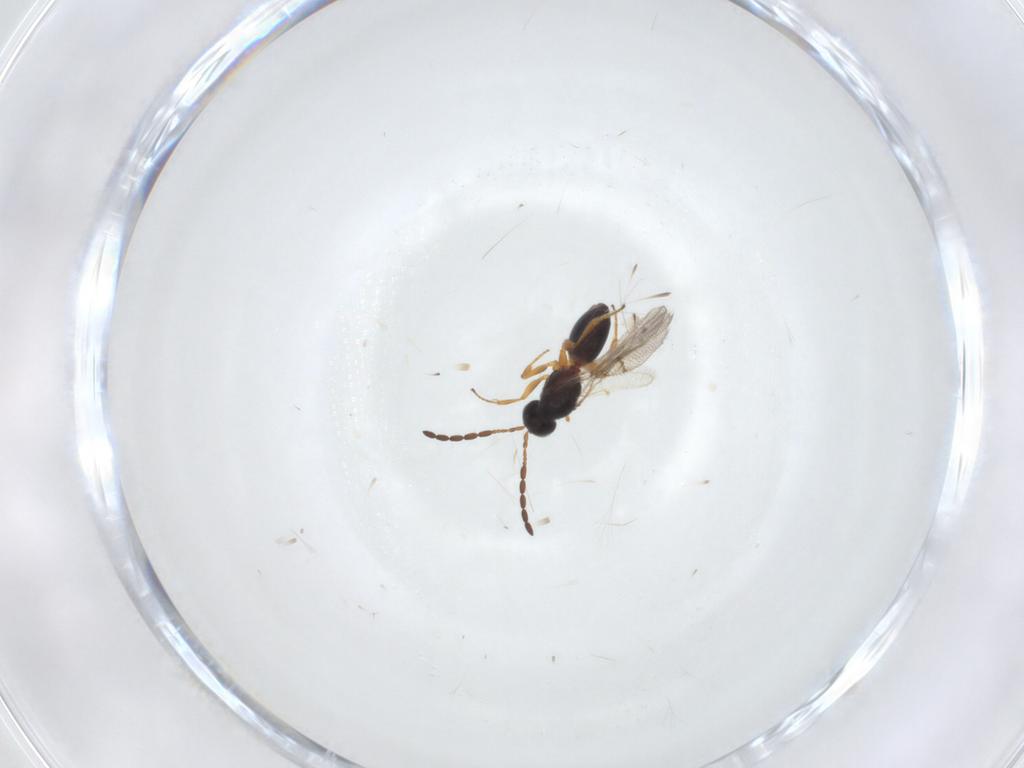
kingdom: Animalia
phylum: Arthropoda
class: Insecta
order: Hymenoptera
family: Figitidae
